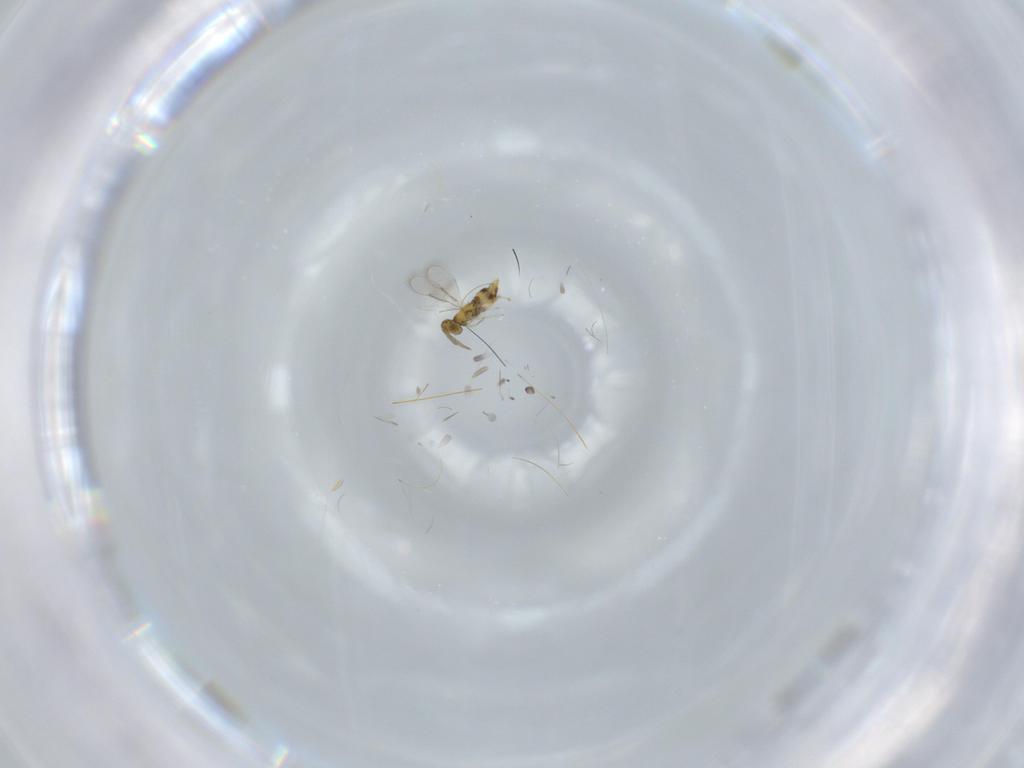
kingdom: Animalia
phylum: Arthropoda
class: Insecta
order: Hymenoptera
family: Aphelinidae
